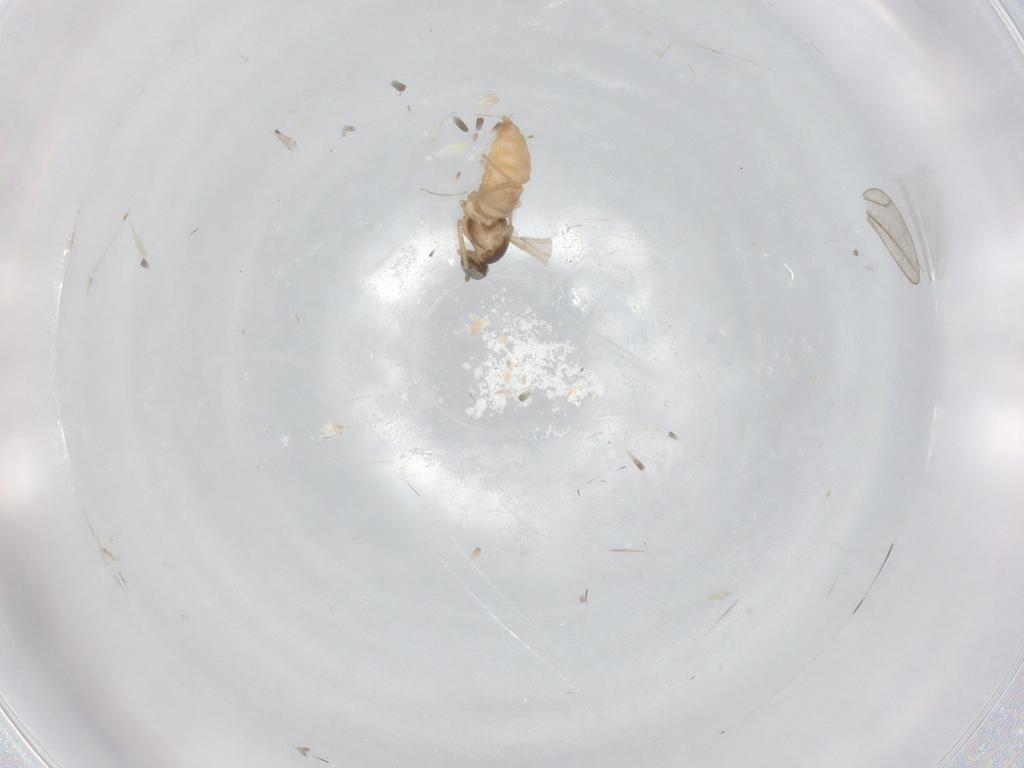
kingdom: Animalia
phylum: Arthropoda
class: Insecta
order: Diptera
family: Cecidomyiidae
